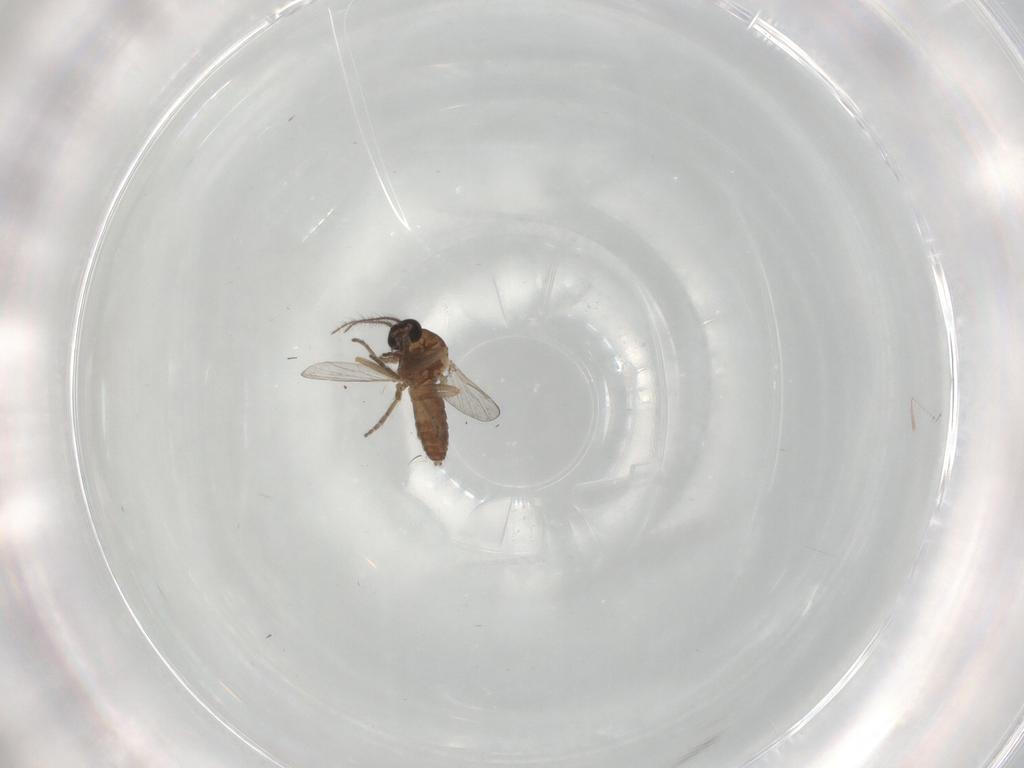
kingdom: Animalia
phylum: Arthropoda
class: Insecta
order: Diptera
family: Ceratopogonidae
